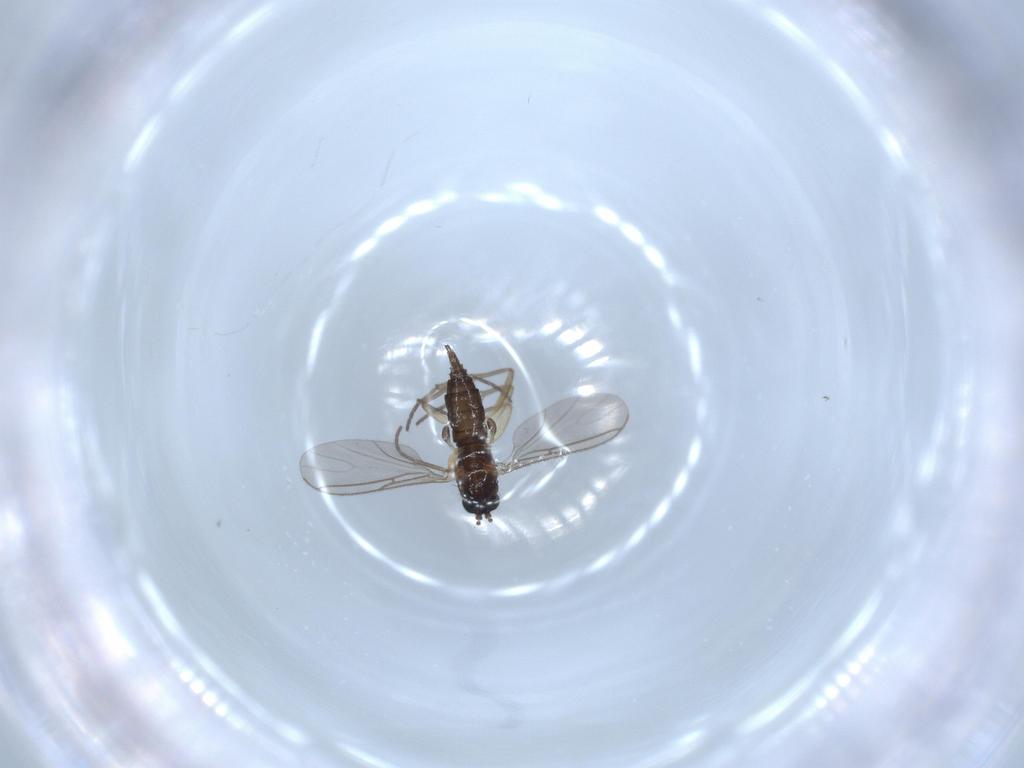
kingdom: Animalia
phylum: Arthropoda
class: Insecta
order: Diptera
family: Sciaridae
